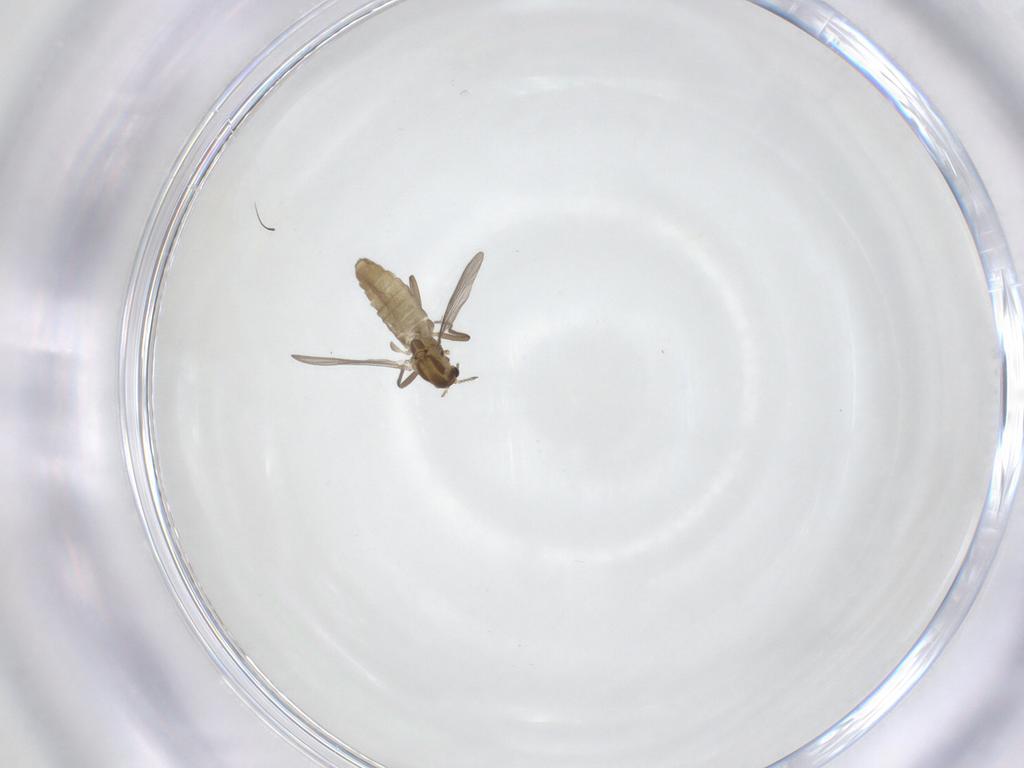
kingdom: Animalia
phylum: Arthropoda
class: Insecta
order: Diptera
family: Chironomidae
